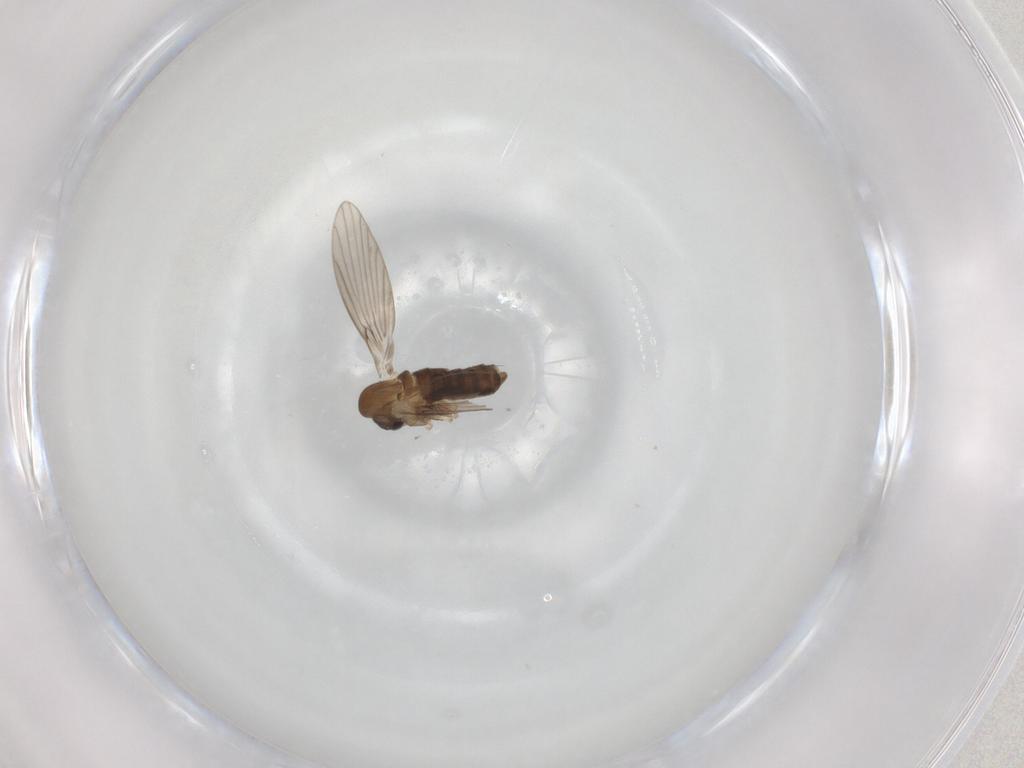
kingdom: Animalia
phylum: Arthropoda
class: Insecta
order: Diptera
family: Dolichopodidae
